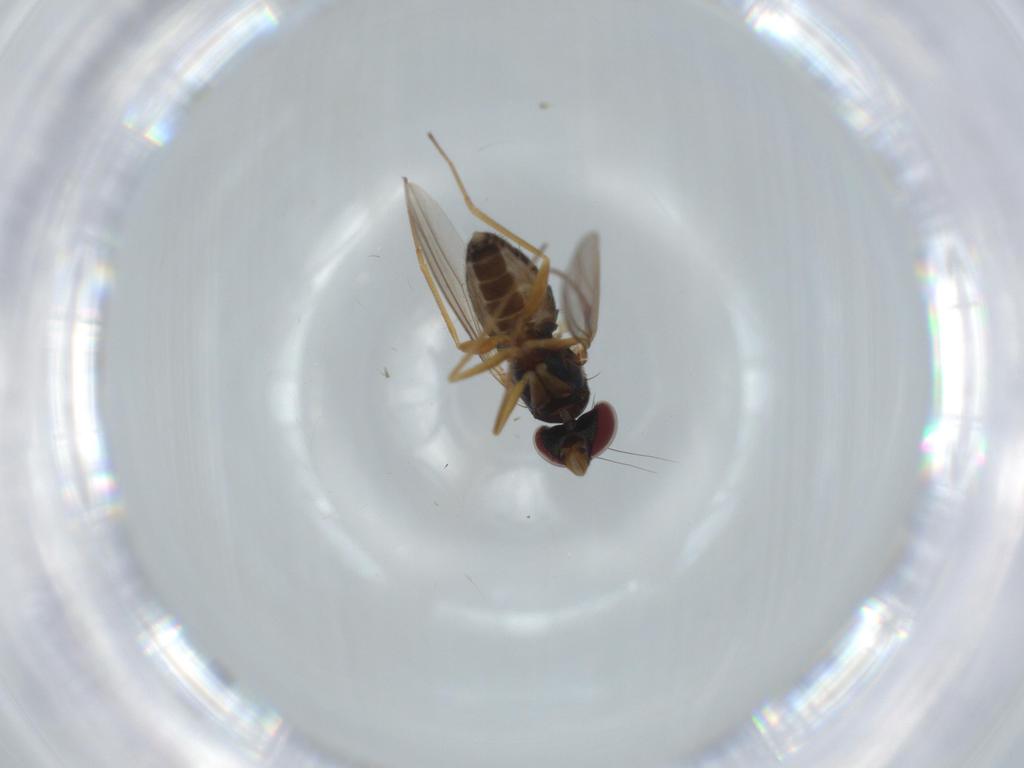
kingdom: Animalia
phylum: Arthropoda
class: Insecta
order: Diptera
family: Dolichopodidae
